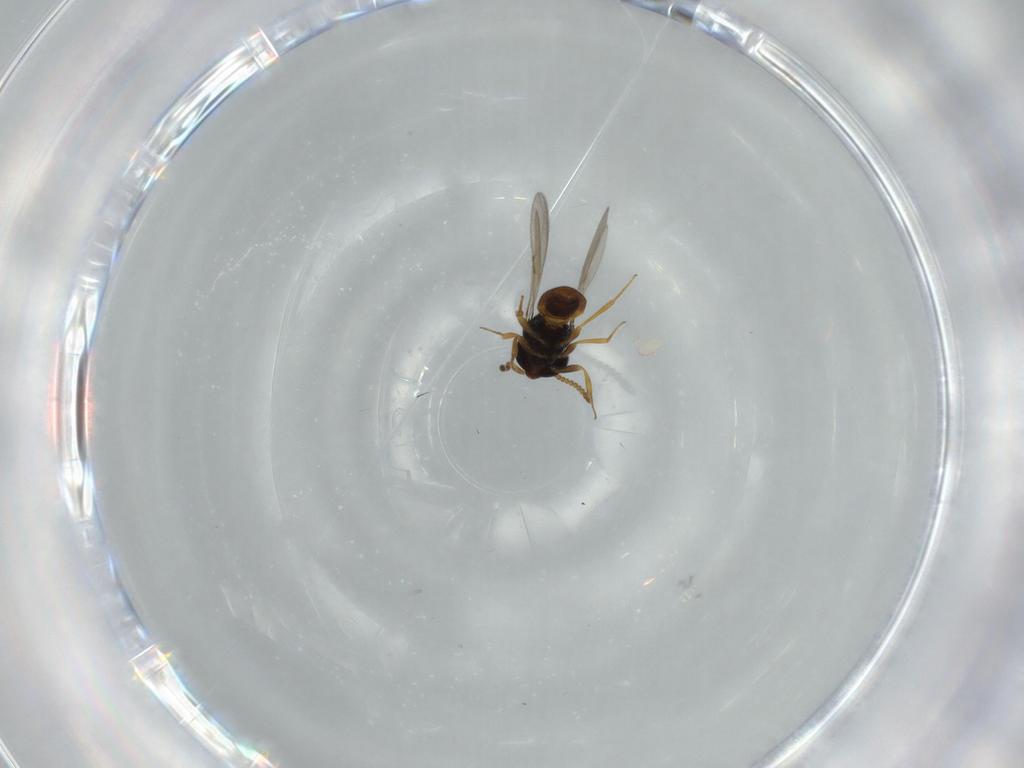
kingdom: Animalia
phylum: Arthropoda
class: Insecta
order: Hymenoptera
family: Scelionidae
